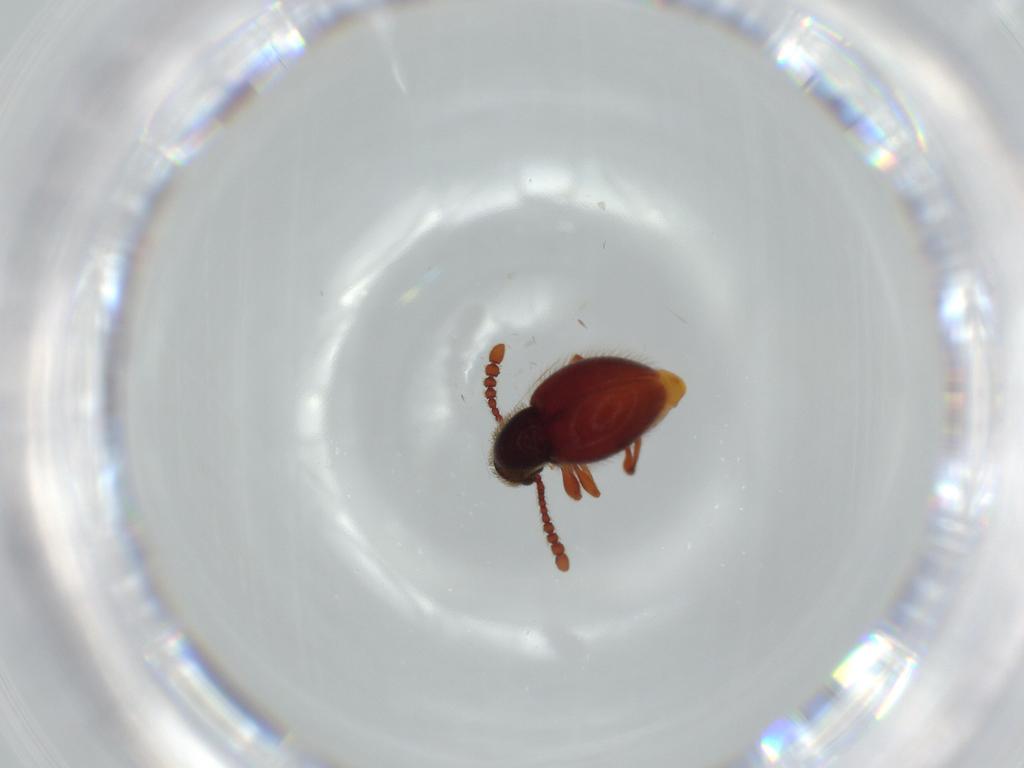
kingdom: Animalia
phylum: Arthropoda
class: Insecta
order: Coleoptera
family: Staphylinidae
